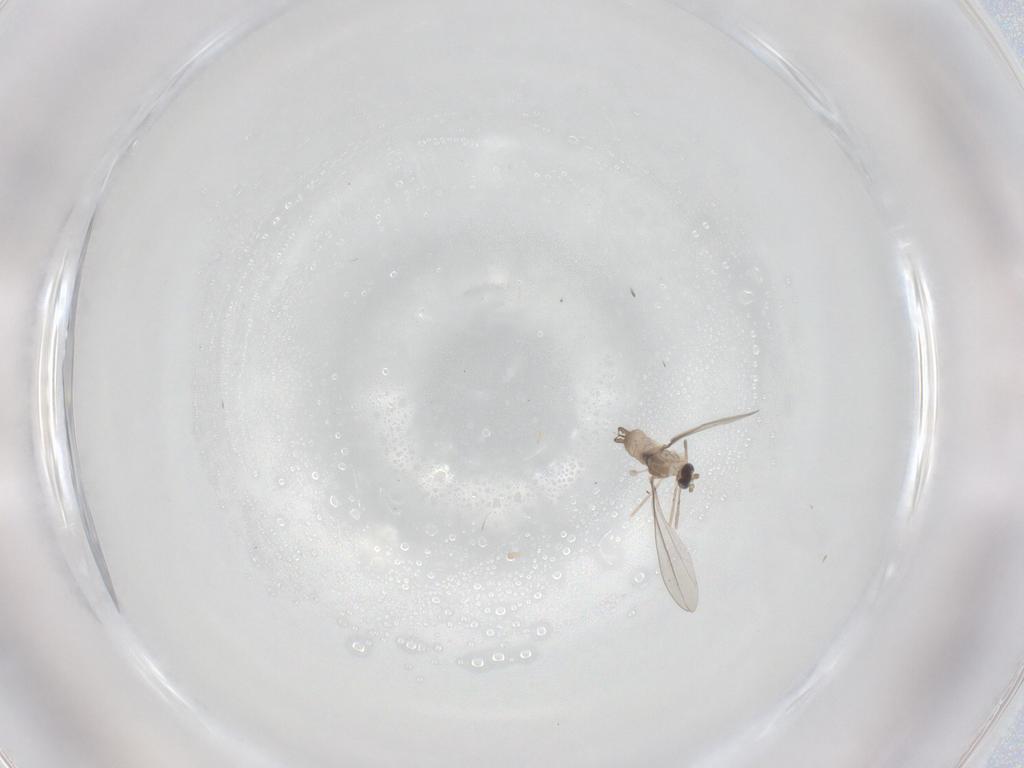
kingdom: Animalia
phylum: Arthropoda
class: Insecta
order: Diptera
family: Cecidomyiidae
